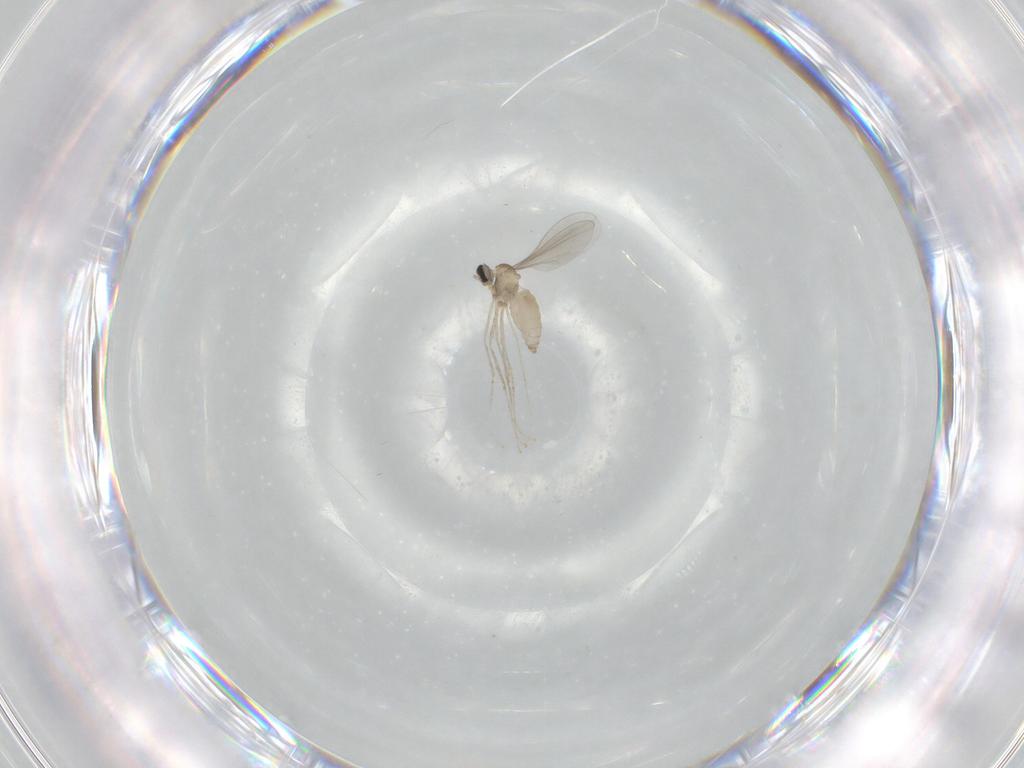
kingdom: Animalia
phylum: Arthropoda
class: Insecta
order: Diptera
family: Cecidomyiidae
